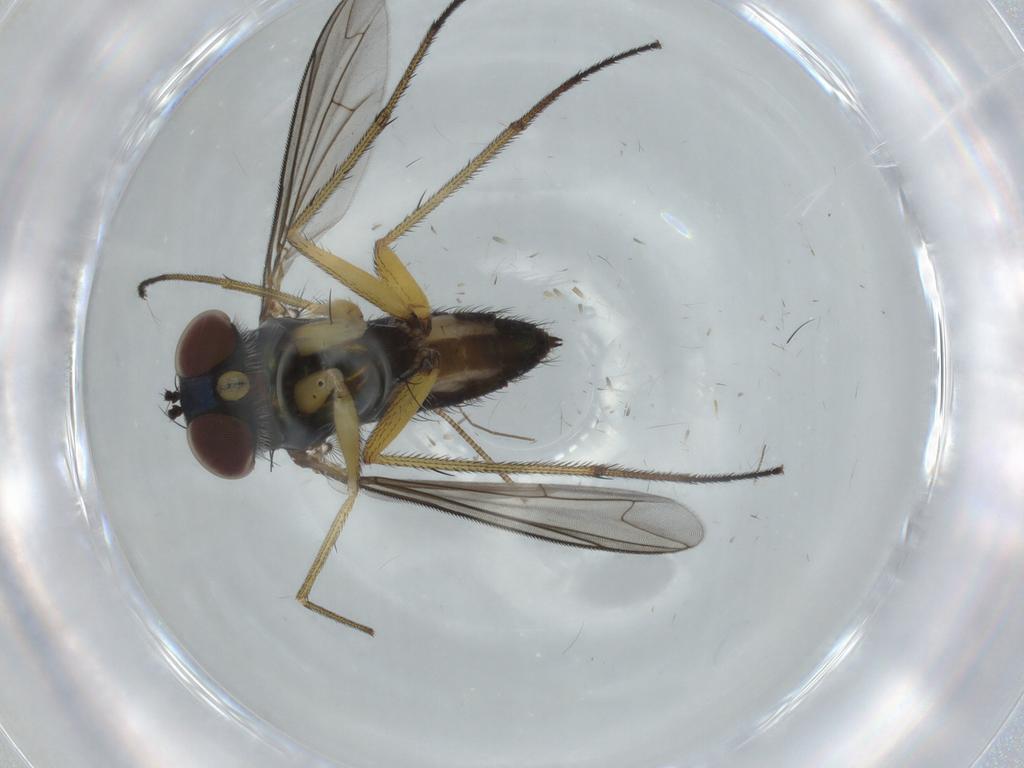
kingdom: Animalia
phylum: Arthropoda
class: Insecta
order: Diptera
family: Dolichopodidae
